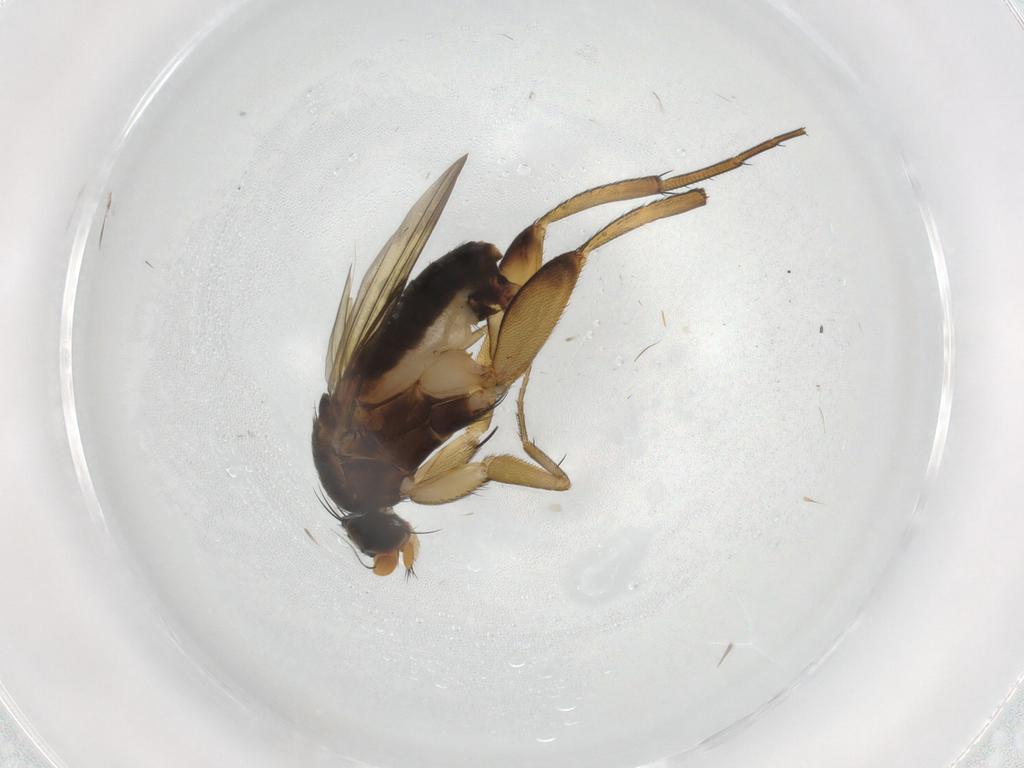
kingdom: Animalia
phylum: Arthropoda
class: Insecta
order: Diptera
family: Phoridae
